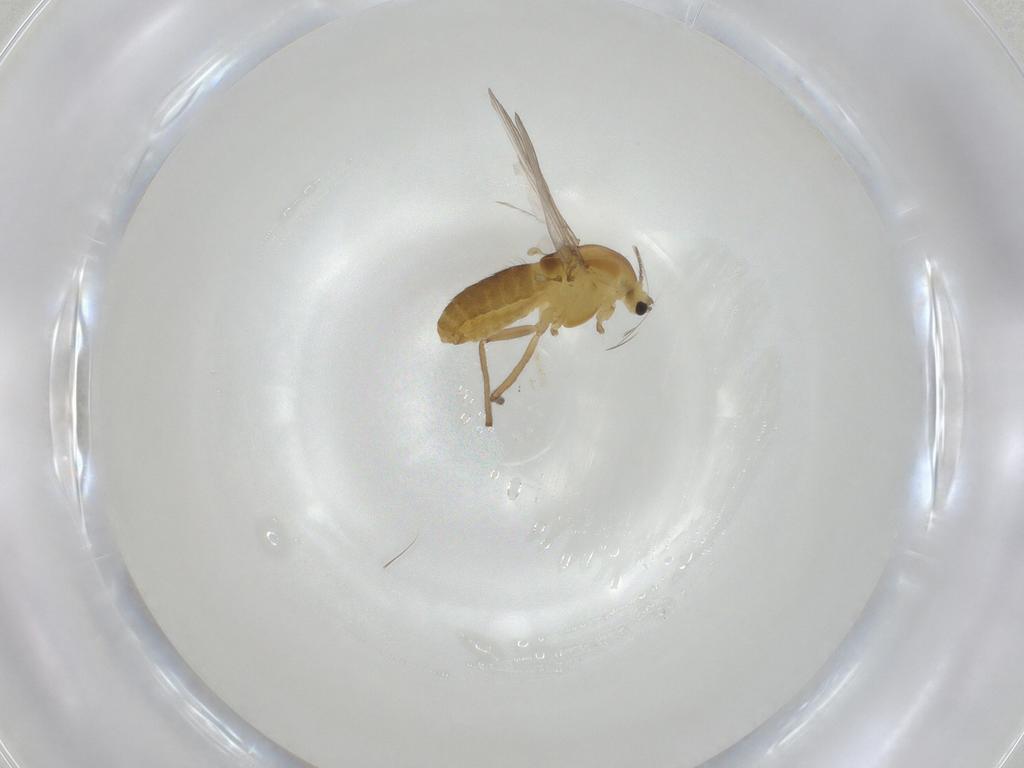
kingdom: Animalia
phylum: Arthropoda
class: Insecta
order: Diptera
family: Chironomidae
